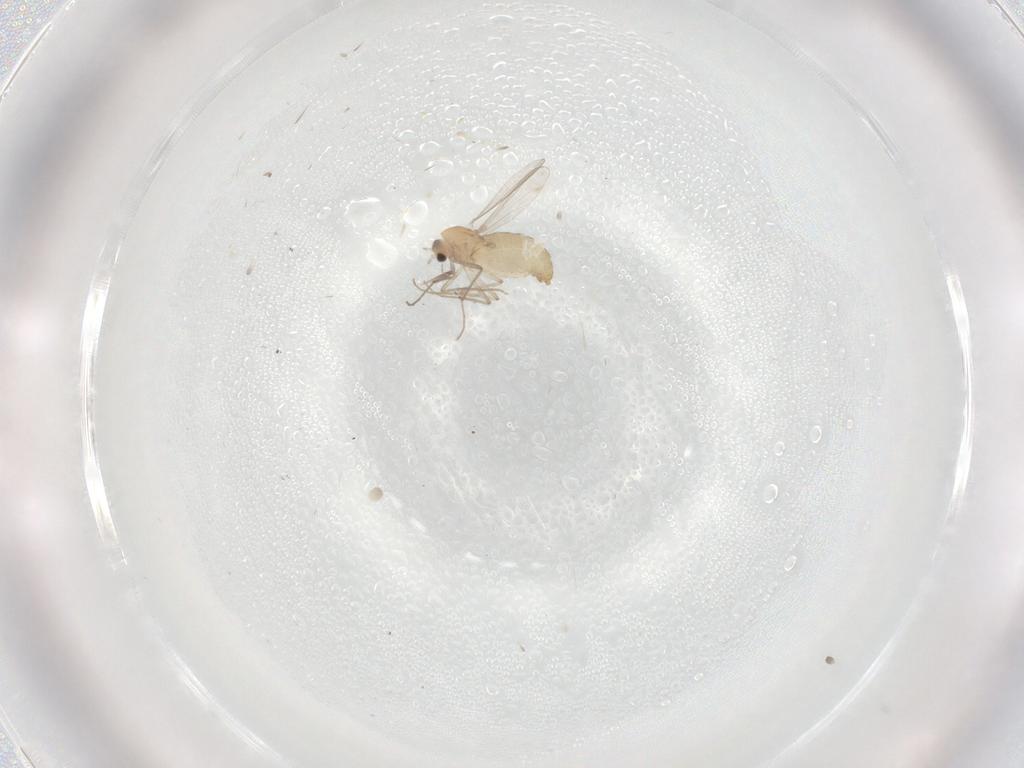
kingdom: Animalia
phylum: Arthropoda
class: Insecta
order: Diptera
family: Chironomidae
